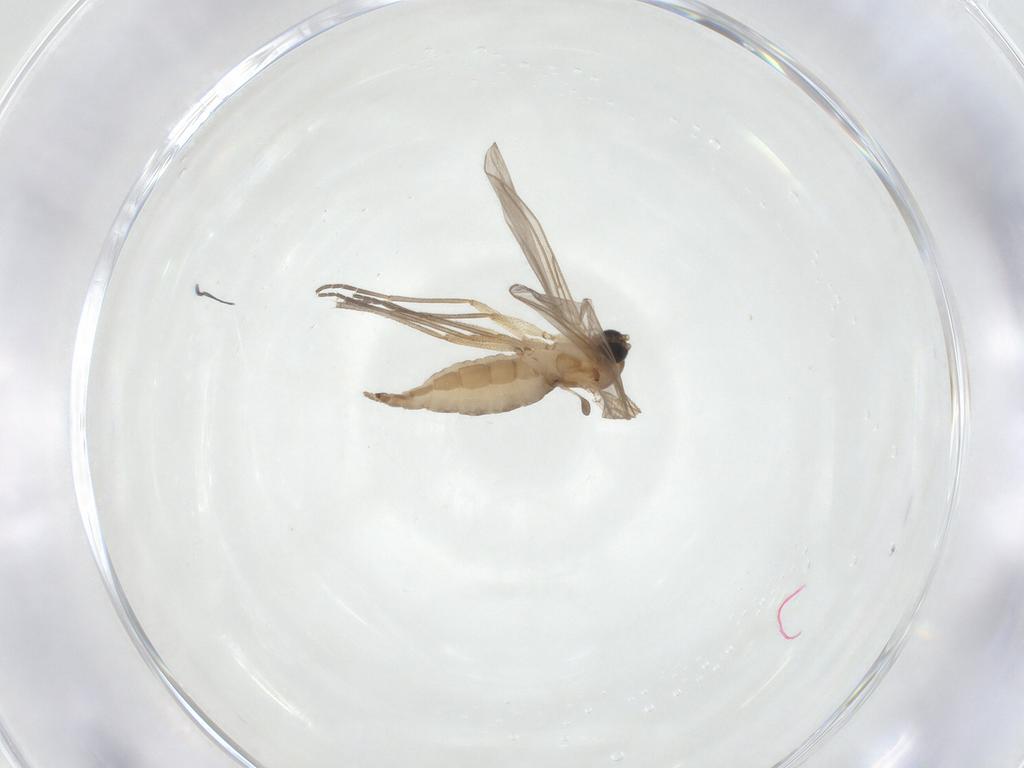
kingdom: Animalia
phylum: Arthropoda
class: Insecta
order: Diptera
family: Sciaridae
